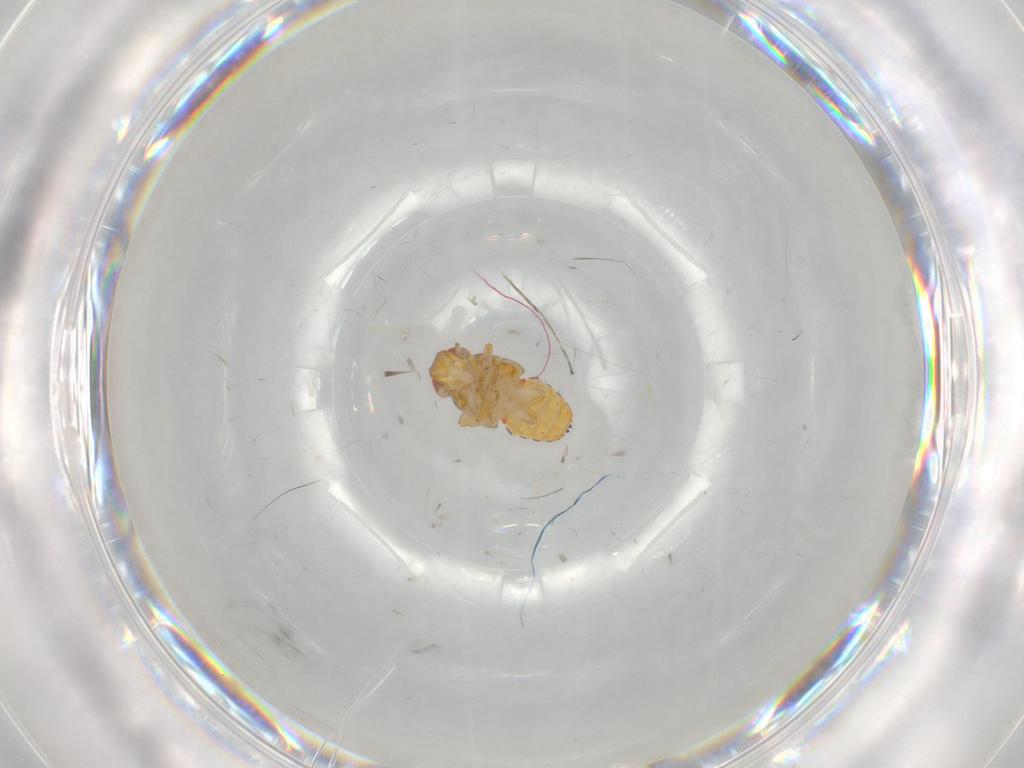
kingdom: Animalia
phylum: Arthropoda
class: Insecta
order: Hemiptera
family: Issidae
